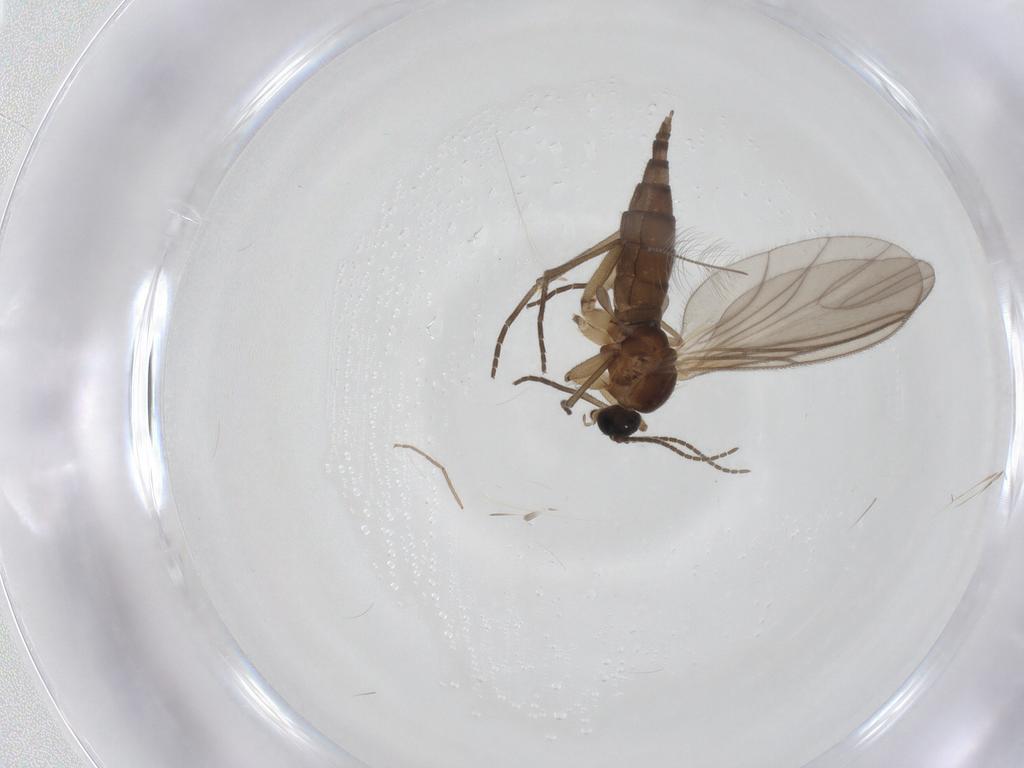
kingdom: Animalia
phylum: Arthropoda
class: Insecta
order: Diptera
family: Sciaridae
